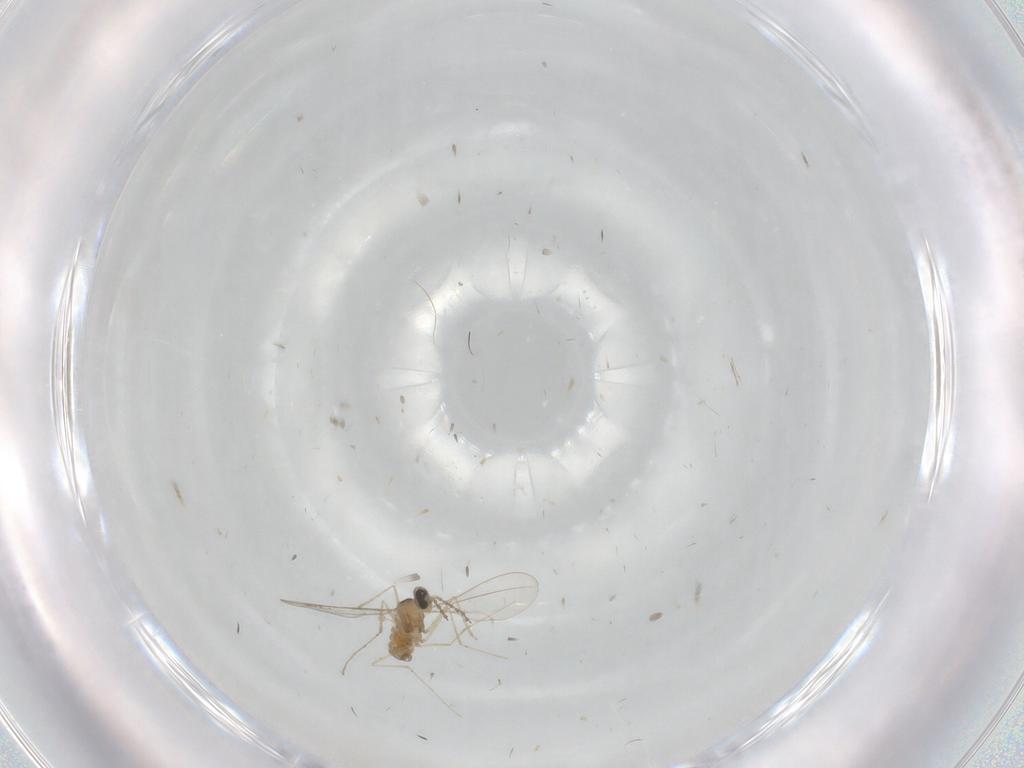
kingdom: Animalia
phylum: Arthropoda
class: Insecta
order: Diptera
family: Cecidomyiidae
